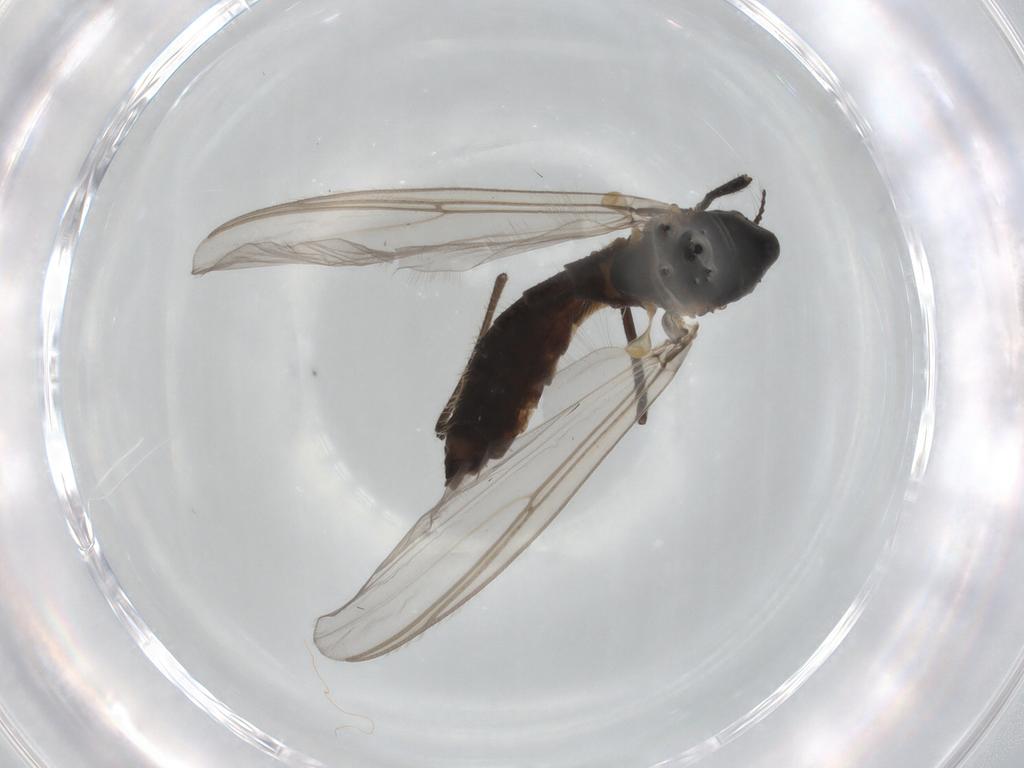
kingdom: Animalia
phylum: Arthropoda
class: Insecta
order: Diptera
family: Chironomidae
